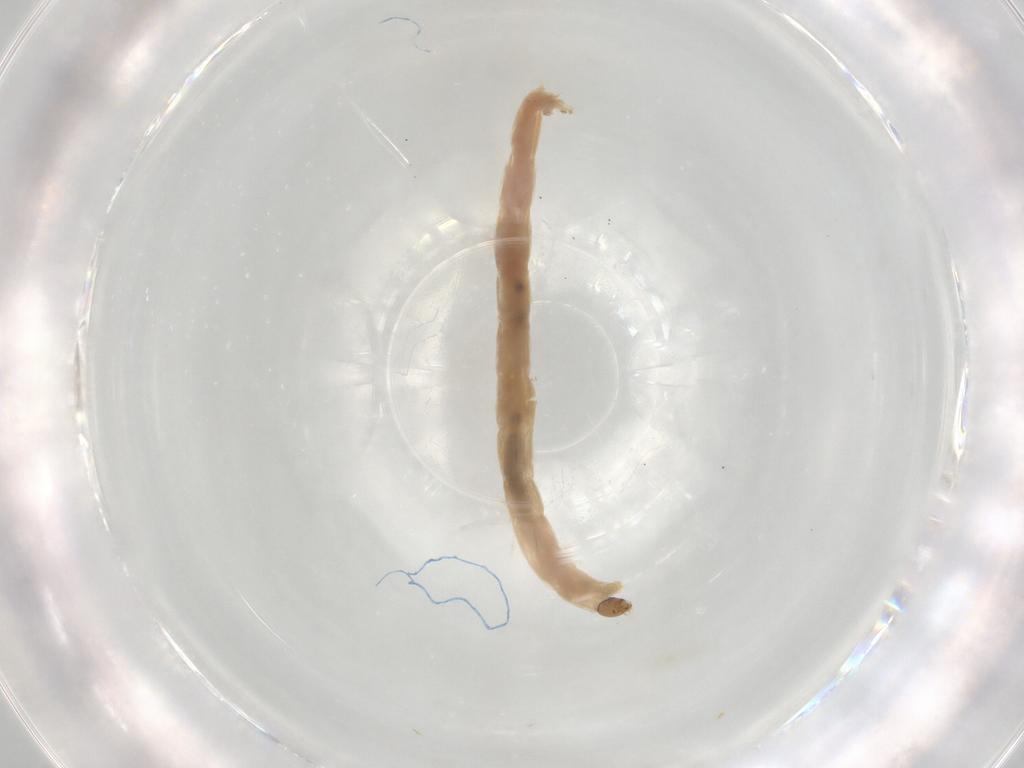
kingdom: Animalia
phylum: Arthropoda
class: Insecta
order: Diptera
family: Chironomidae
